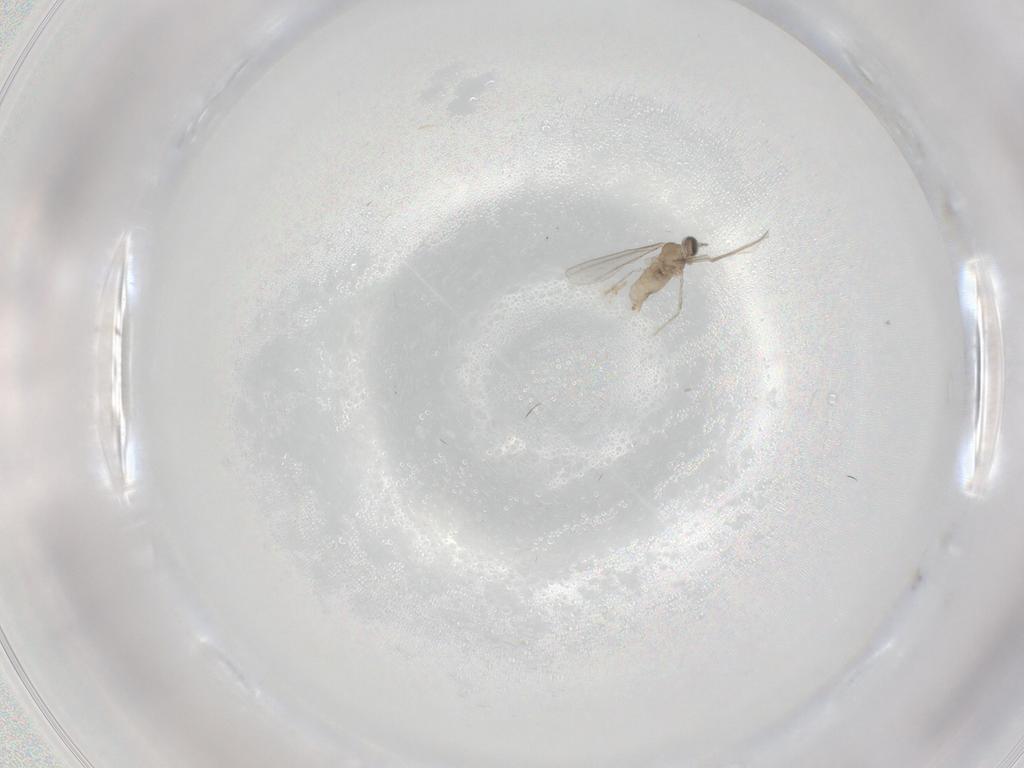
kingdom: Animalia
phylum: Arthropoda
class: Insecta
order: Diptera
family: Cecidomyiidae
